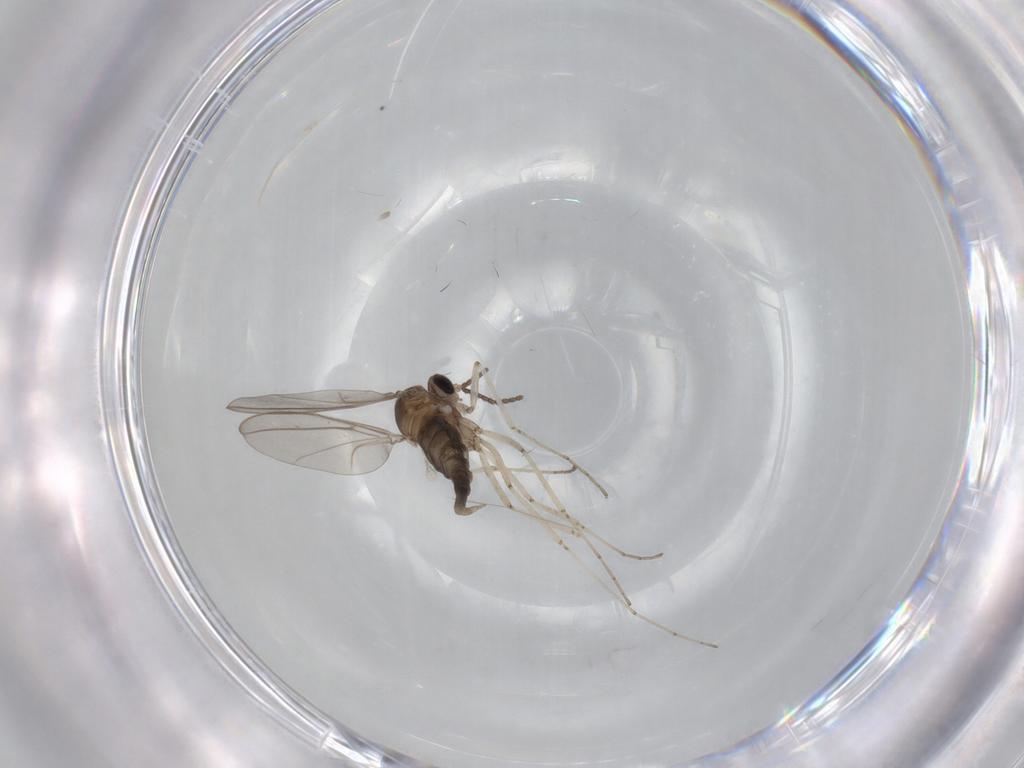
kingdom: Animalia
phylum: Arthropoda
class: Insecta
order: Diptera
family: Cecidomyiidae
